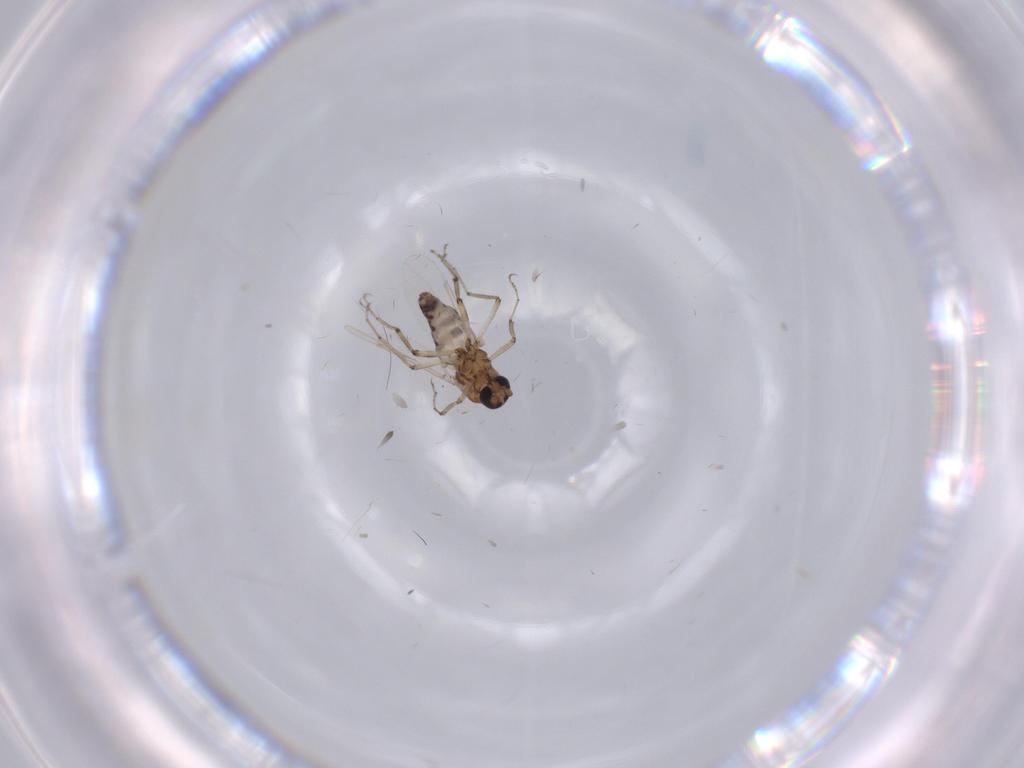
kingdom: Animalia
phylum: Arthropoda
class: Insecta
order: Diptera
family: Ceratopogonidae
